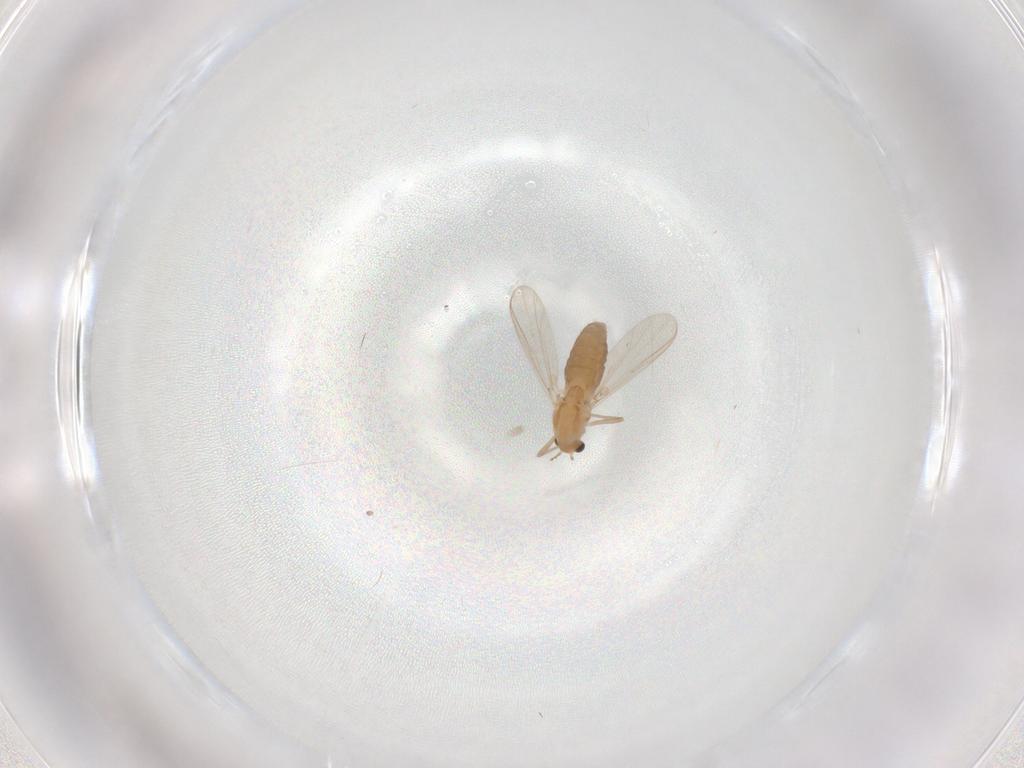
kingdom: Animalia
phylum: Arthropoda
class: Insecta
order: Diptera
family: Chironomidae
